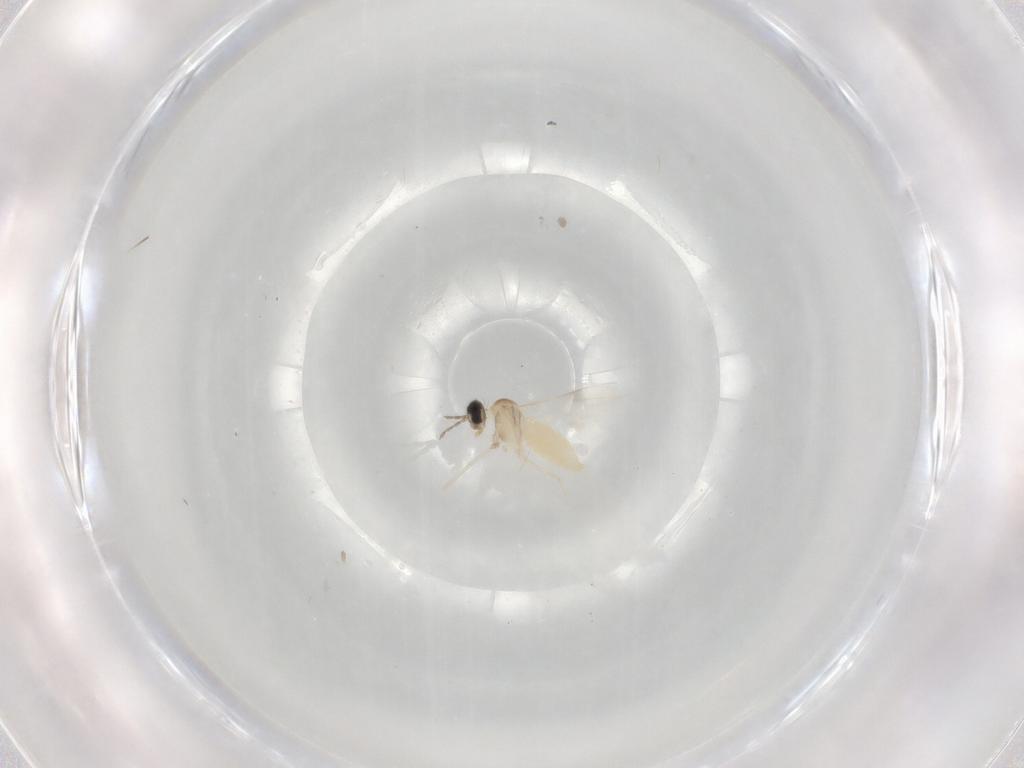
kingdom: Animalia
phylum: Arthropoda
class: Insecta
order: Diptera
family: Cecidomyiidae
